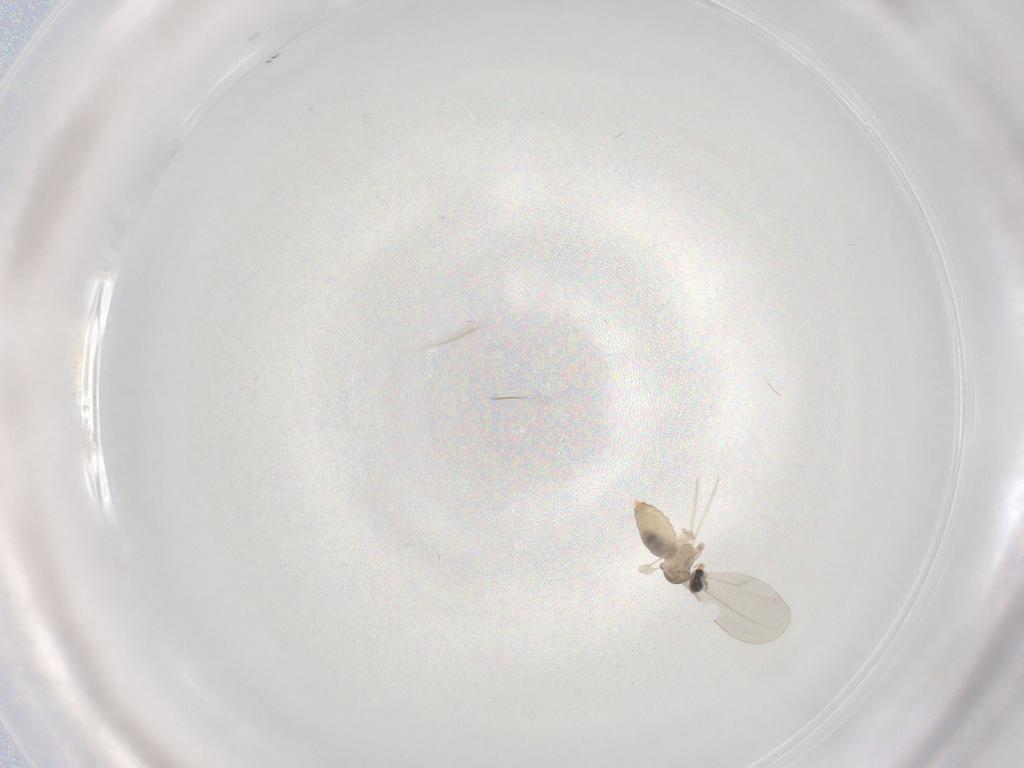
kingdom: Animalia
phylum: Arthropoda
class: Insecta
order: Diptera
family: Cecidomyiidae
